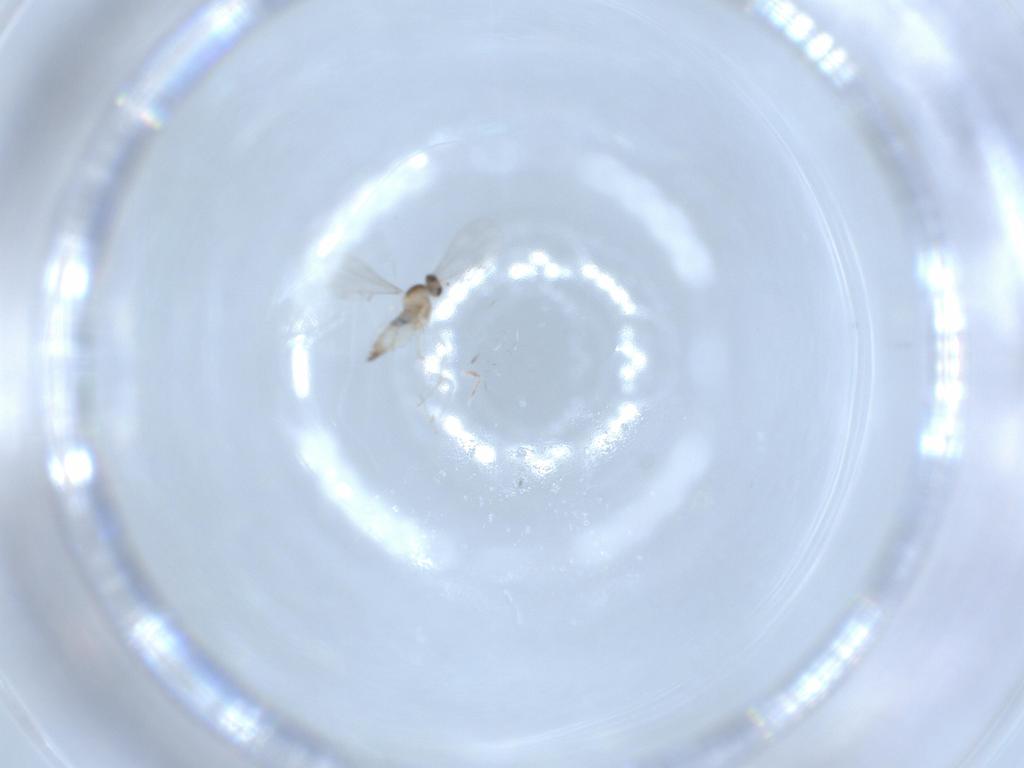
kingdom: Animalia
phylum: Arthropoda
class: Insecta
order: Diptera
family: Sciaridae
